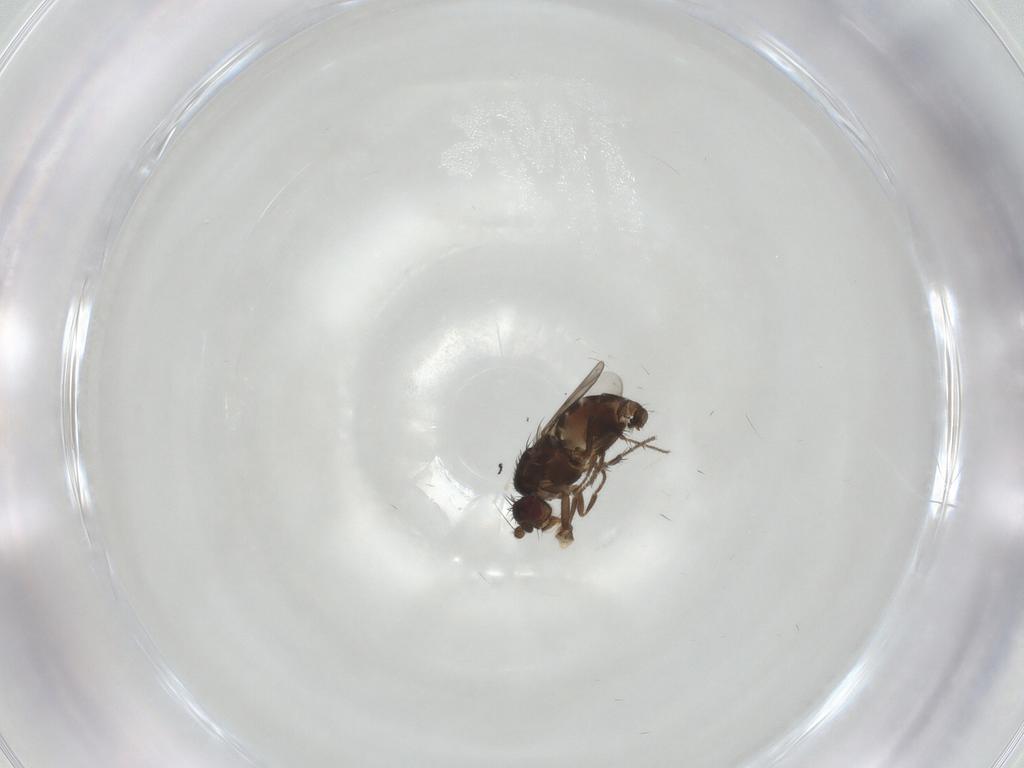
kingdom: Animalia
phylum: Arthropoda
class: Insecta
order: Diptera
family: Sphaeroceridae
